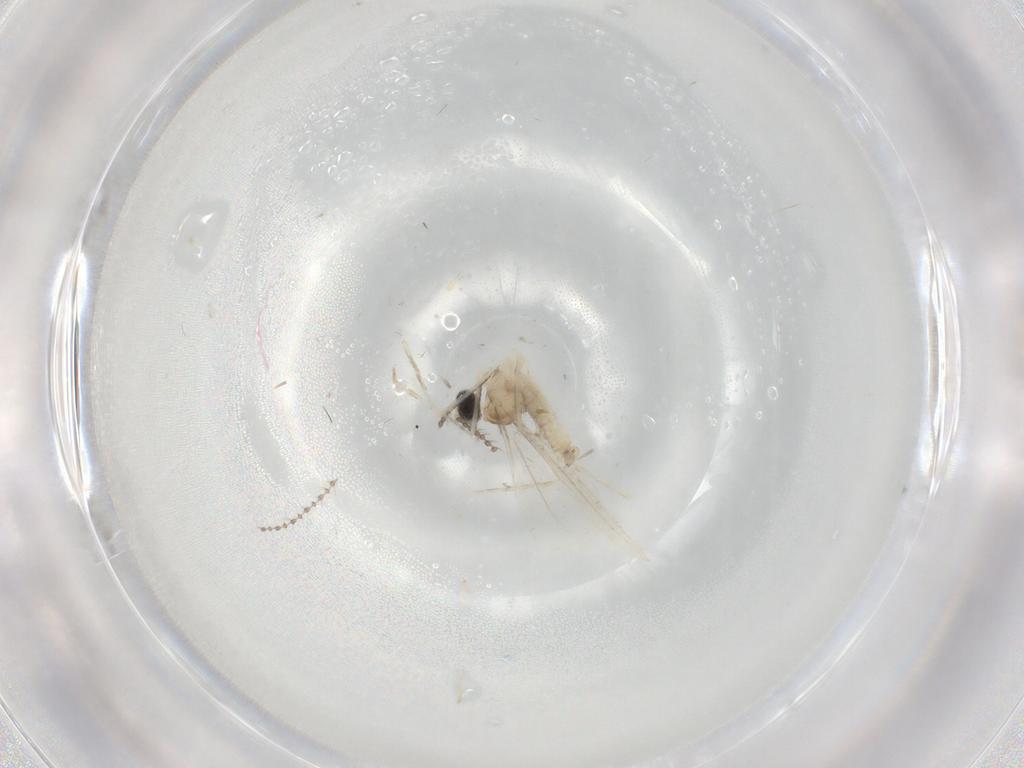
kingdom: Animalia
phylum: Arthropoda
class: Insecta
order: Diptera
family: Cecidomyiidae
